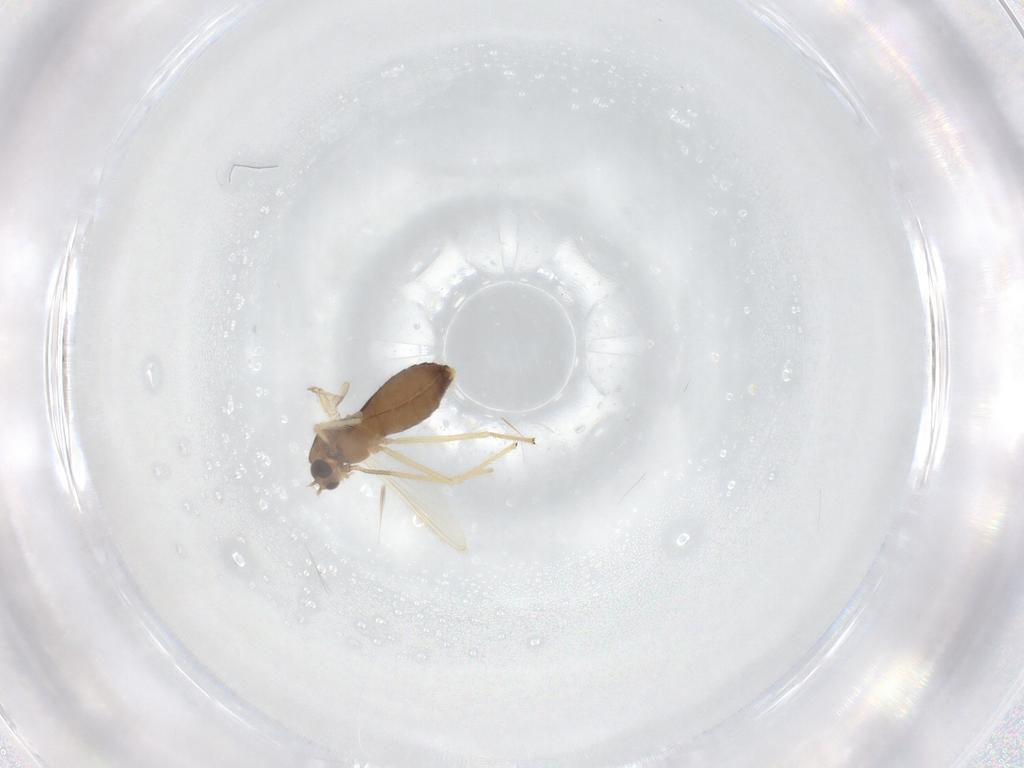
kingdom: Animalia
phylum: Arthropoda
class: Insecta
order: Diptera
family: Chironomidae
